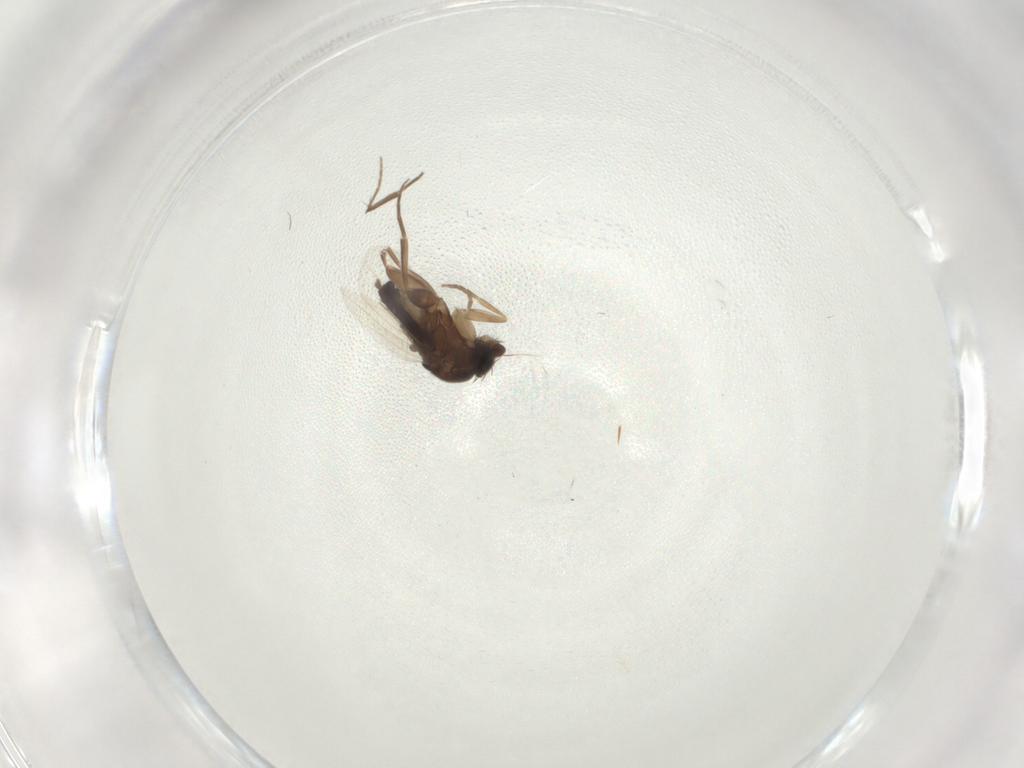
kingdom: Animalia
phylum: Arthropoda
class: Insecta
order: Diptera
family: Phoridae
